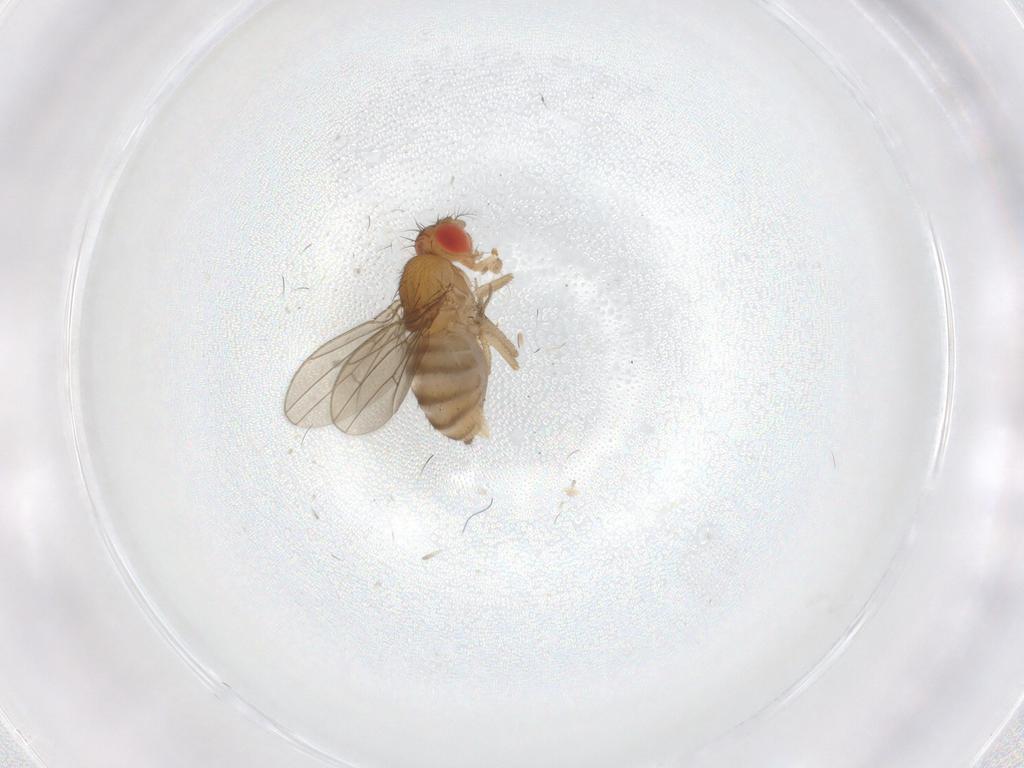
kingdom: Animalia
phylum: Arthropoda
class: Insecta
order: Diptera
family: Drosophilidae
